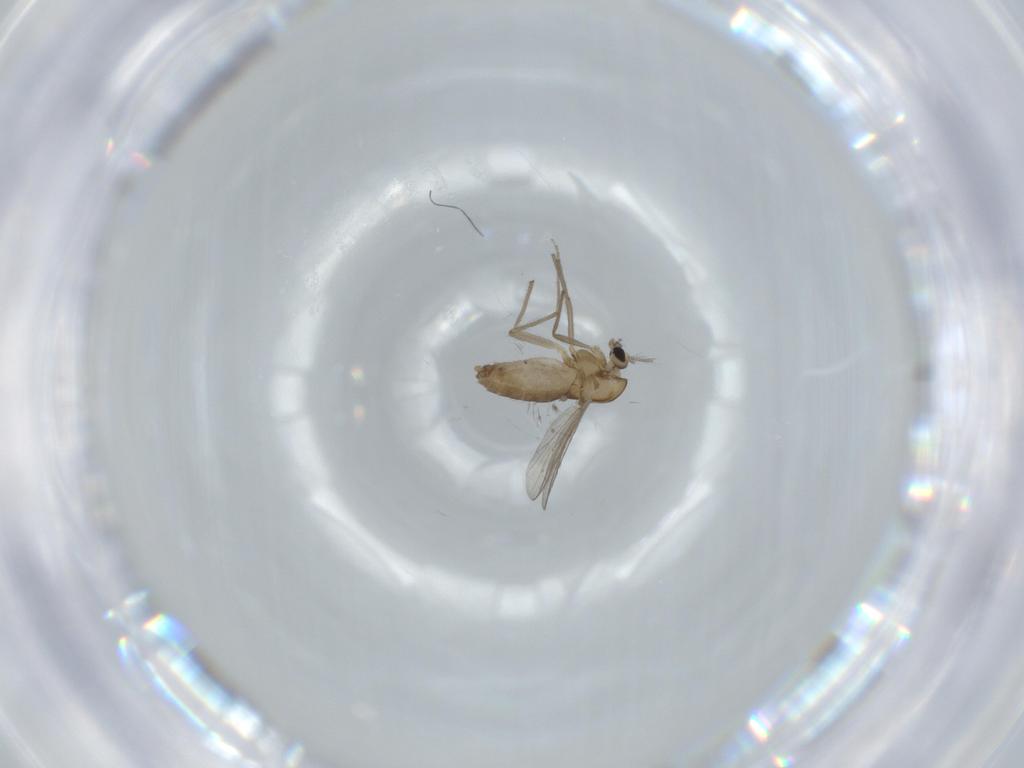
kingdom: Animalia
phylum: Arthropoda
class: Insecta
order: Diptera
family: Chironomidae
